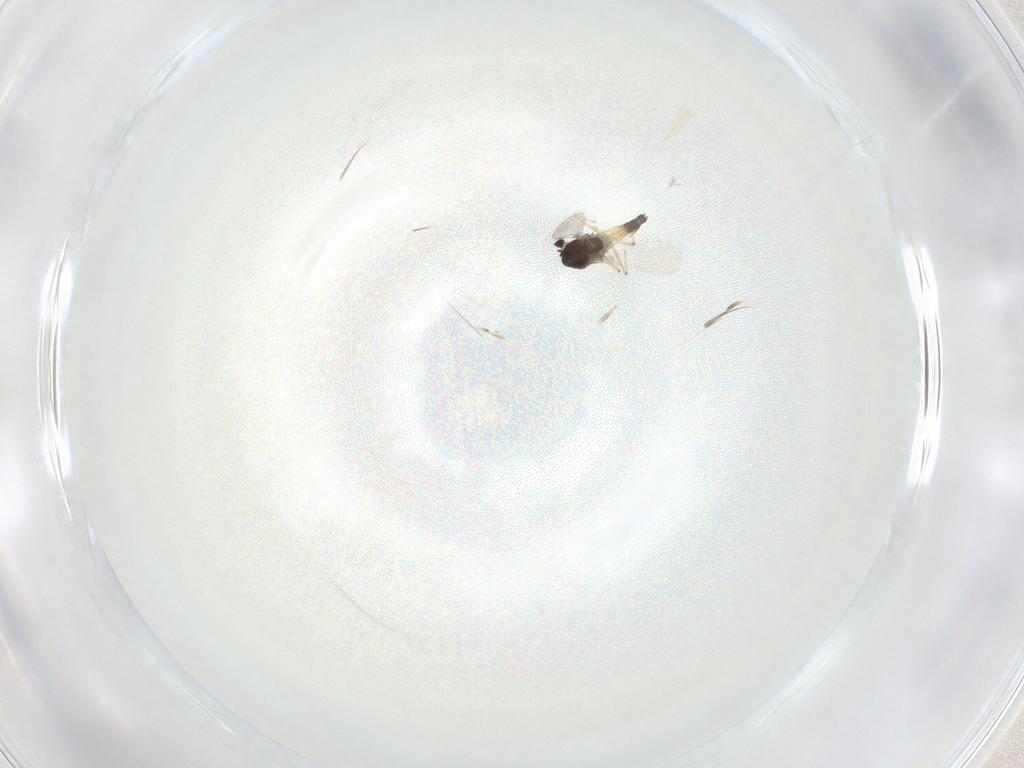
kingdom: Animalia
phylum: Arthropoda
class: Insecta
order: Diptera
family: Chironomidae
